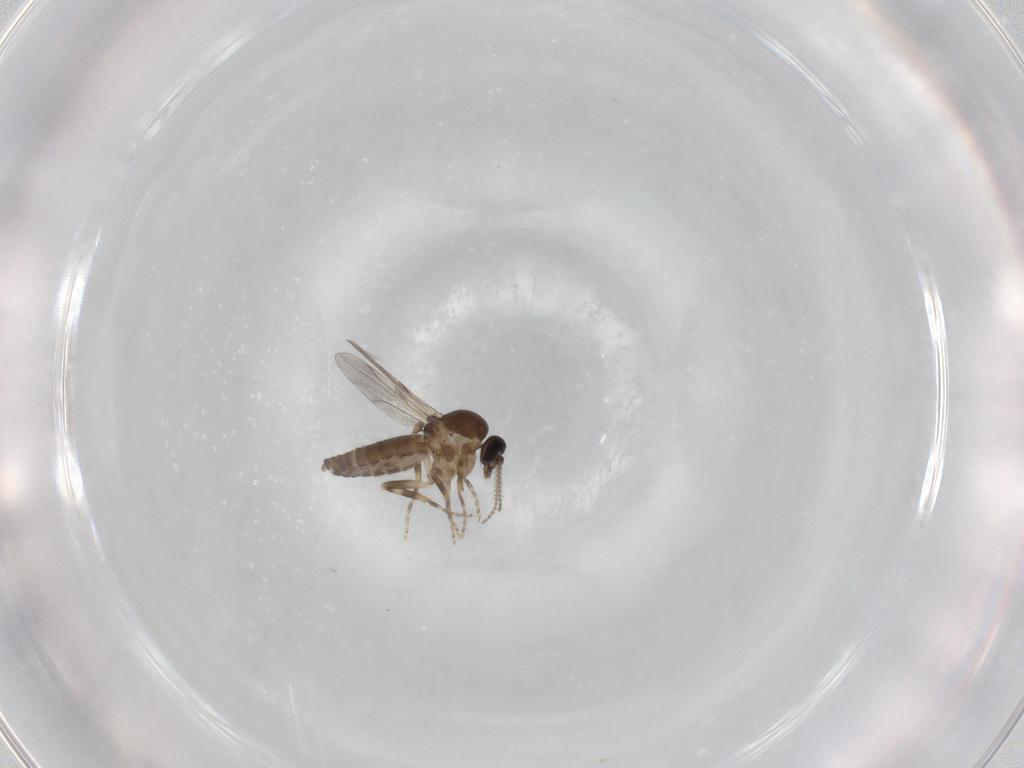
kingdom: Animalia
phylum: Arthropoda
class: Insecta
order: Diptera
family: Ceratopogonidae
